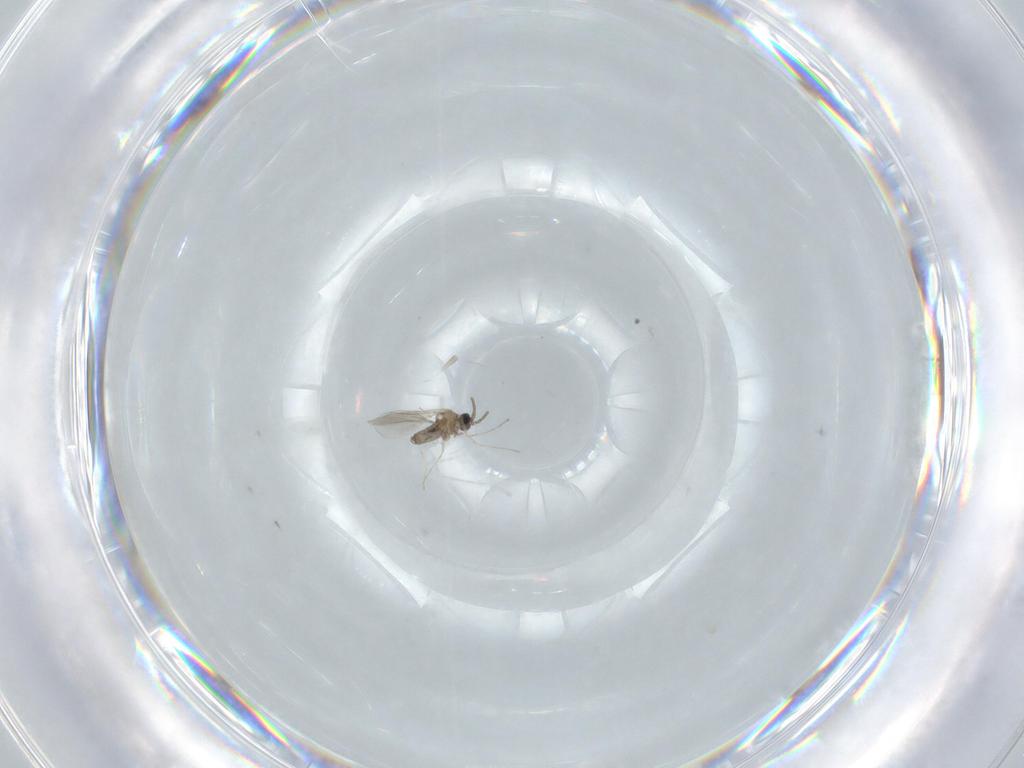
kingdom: Animalia
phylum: Arthropoda
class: Insecta
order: Diptera
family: Cecidomyiidae
